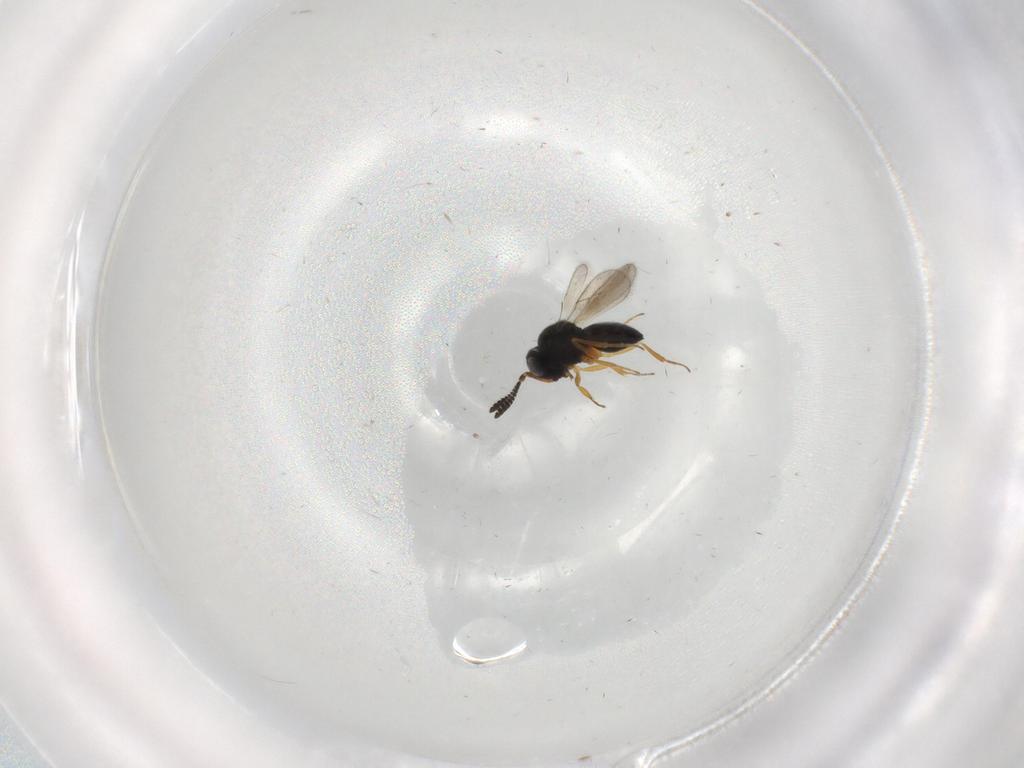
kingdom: Animalia
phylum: Arthropoda
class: Insecta
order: Hymenoptera
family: Scelionidae
